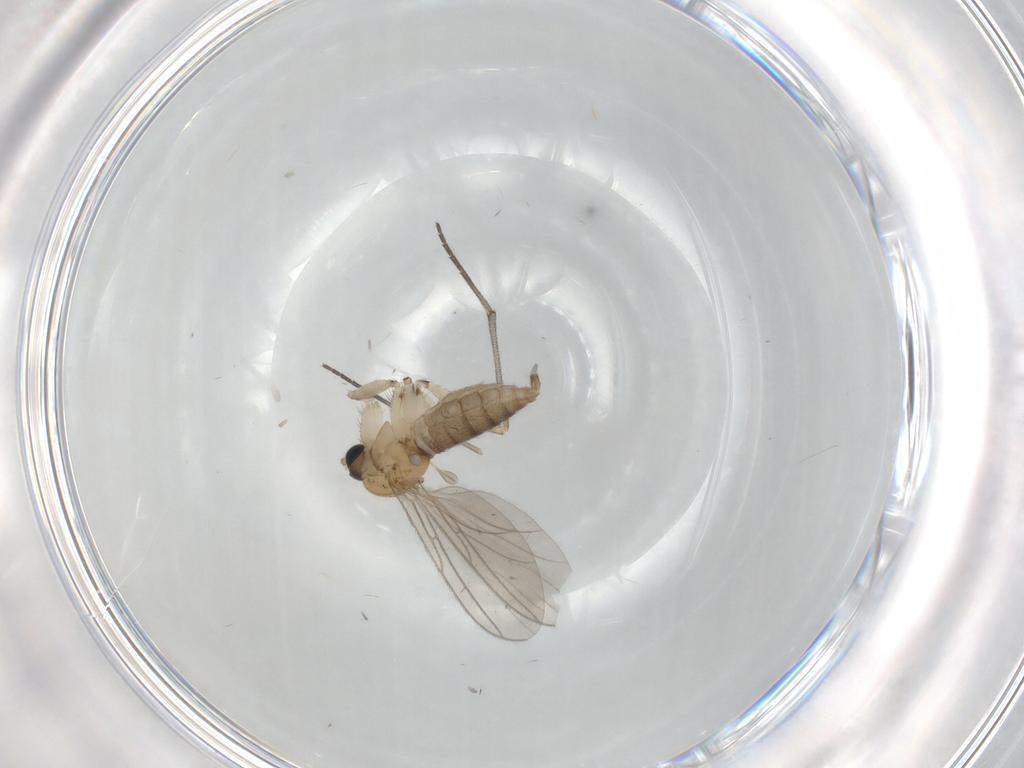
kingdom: Animalia
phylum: Arthropoda
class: Insecta
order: Diptera
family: Sciaridae
